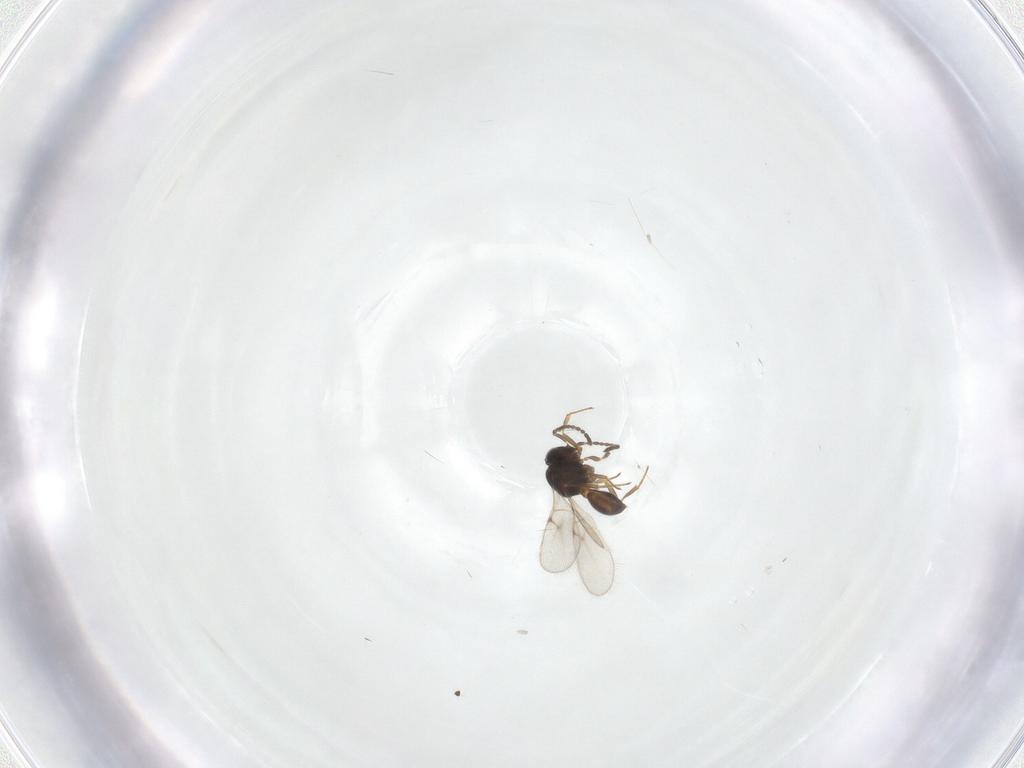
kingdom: Animalia
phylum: Arthropoda
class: Arachnida
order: Araneae
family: Pholcidae
